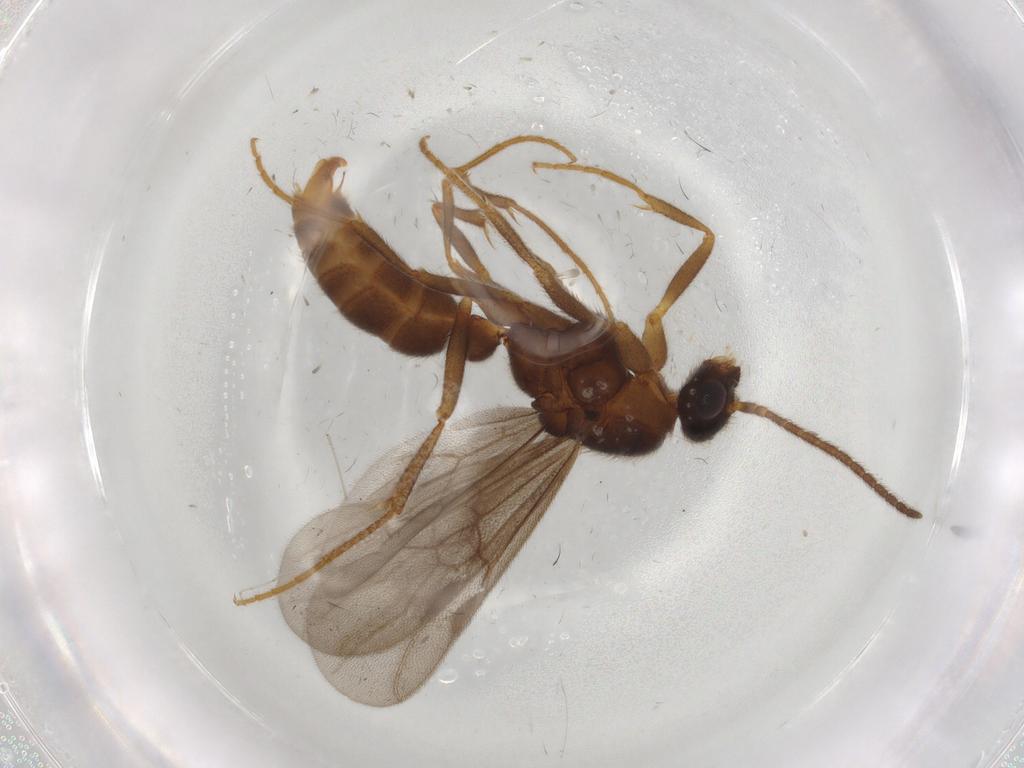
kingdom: Animalia
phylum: Arthropoda
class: Insecta
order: Hymenoptera
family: Formicidae
